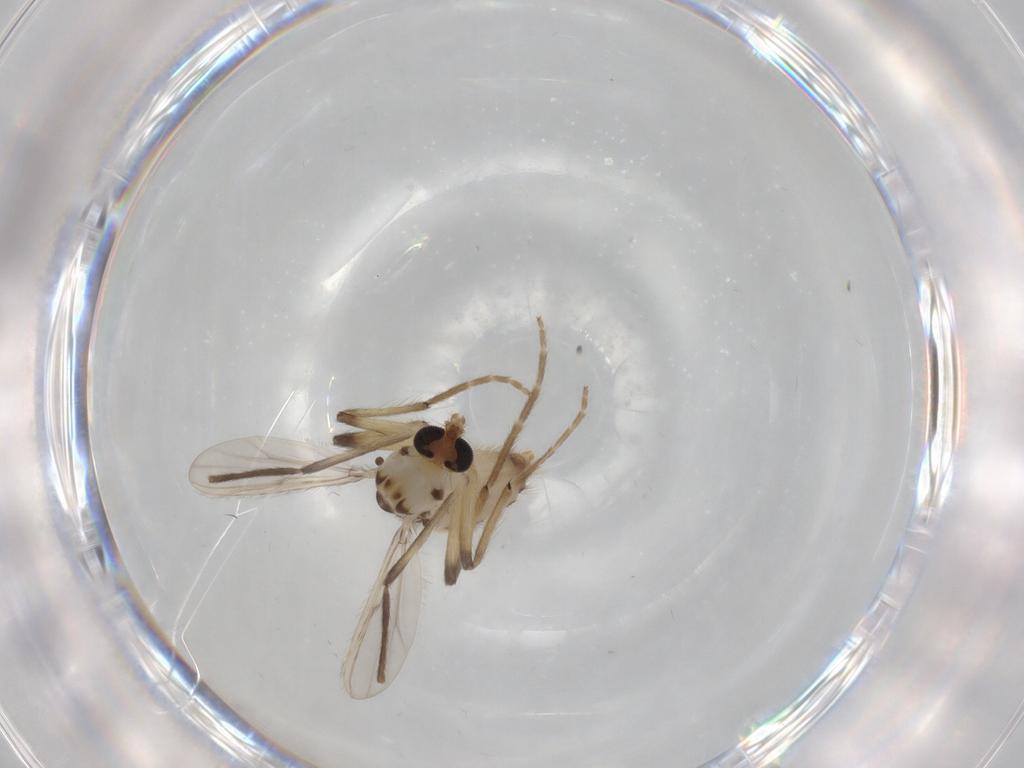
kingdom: Animalia
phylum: Arthropoda
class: Insecta
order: Diptera
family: Chironomidae
